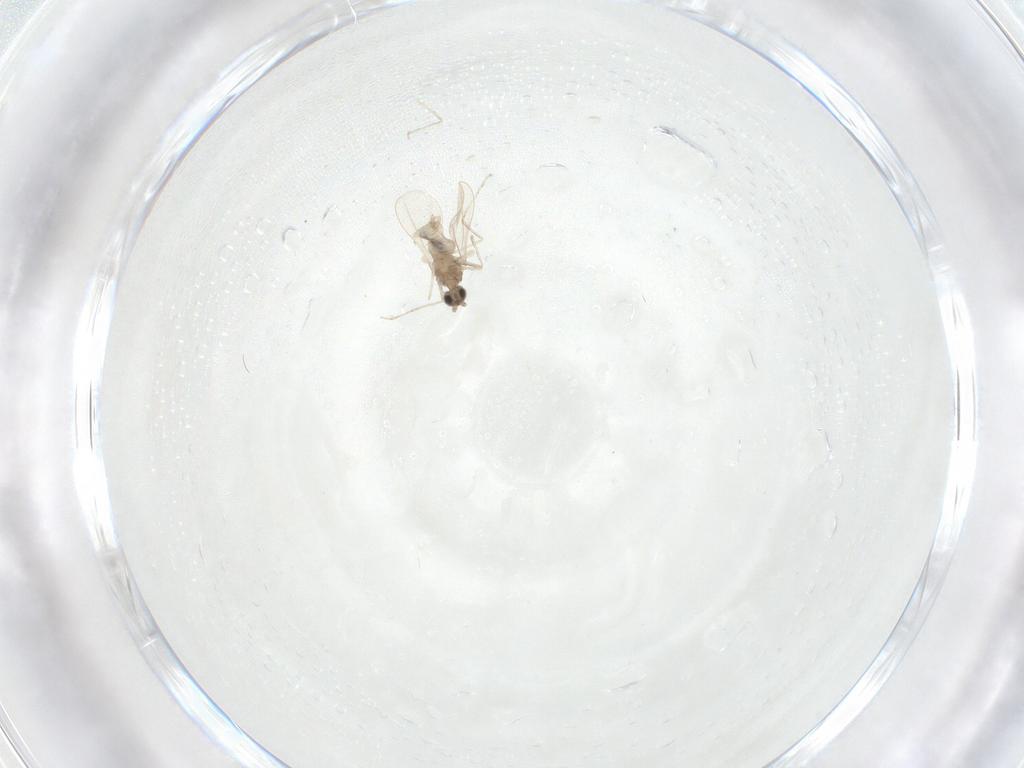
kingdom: Animalia
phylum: Arthropoda
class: Insecta
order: Diptera
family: Cecidomyiidae
